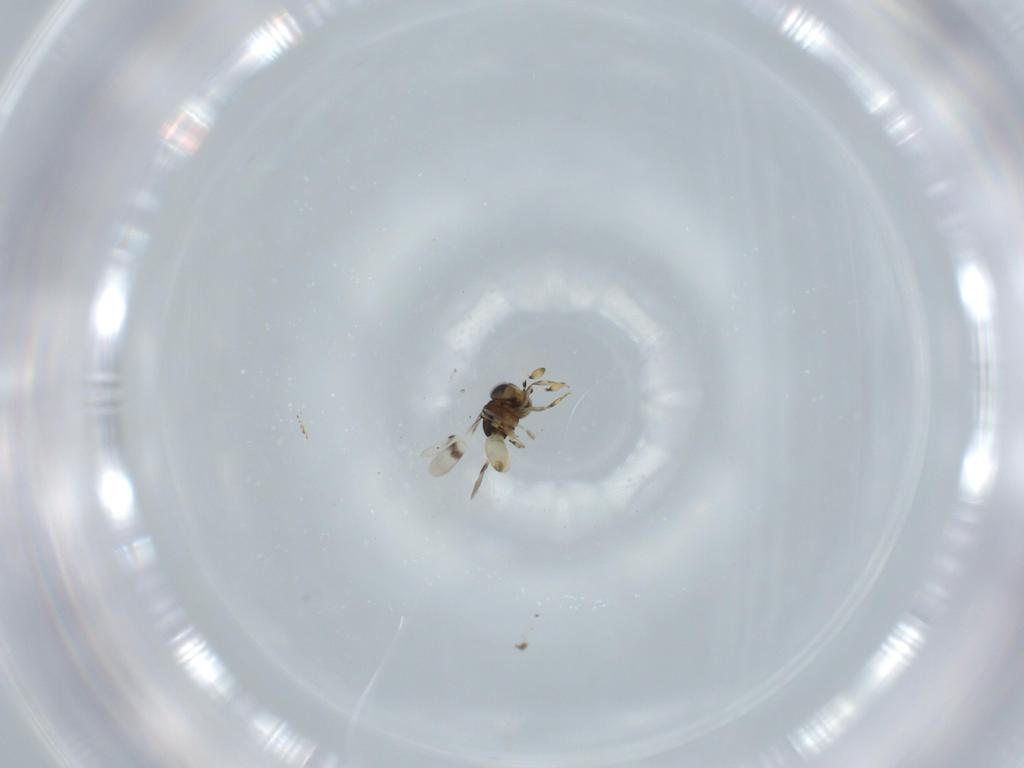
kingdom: Animalia
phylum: Arthropoda
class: Insecta
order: Hymenoptera
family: Scelionidae
